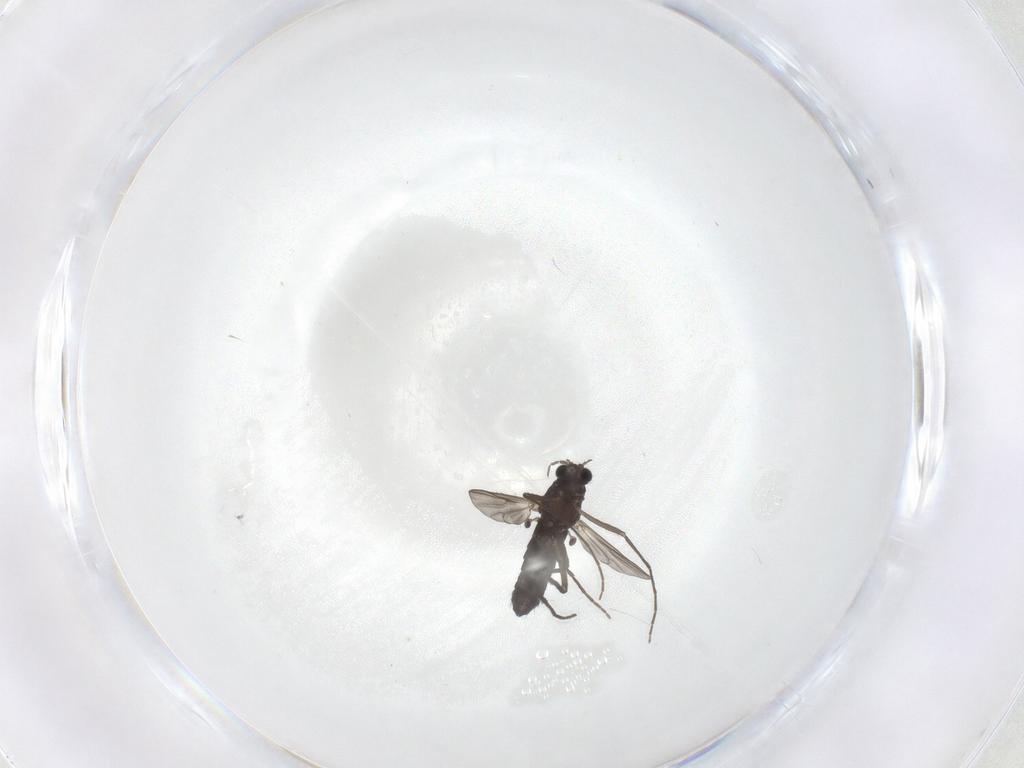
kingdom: Animalia
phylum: Arthropoda
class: Insecta
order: Diptera
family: Chironomidae
